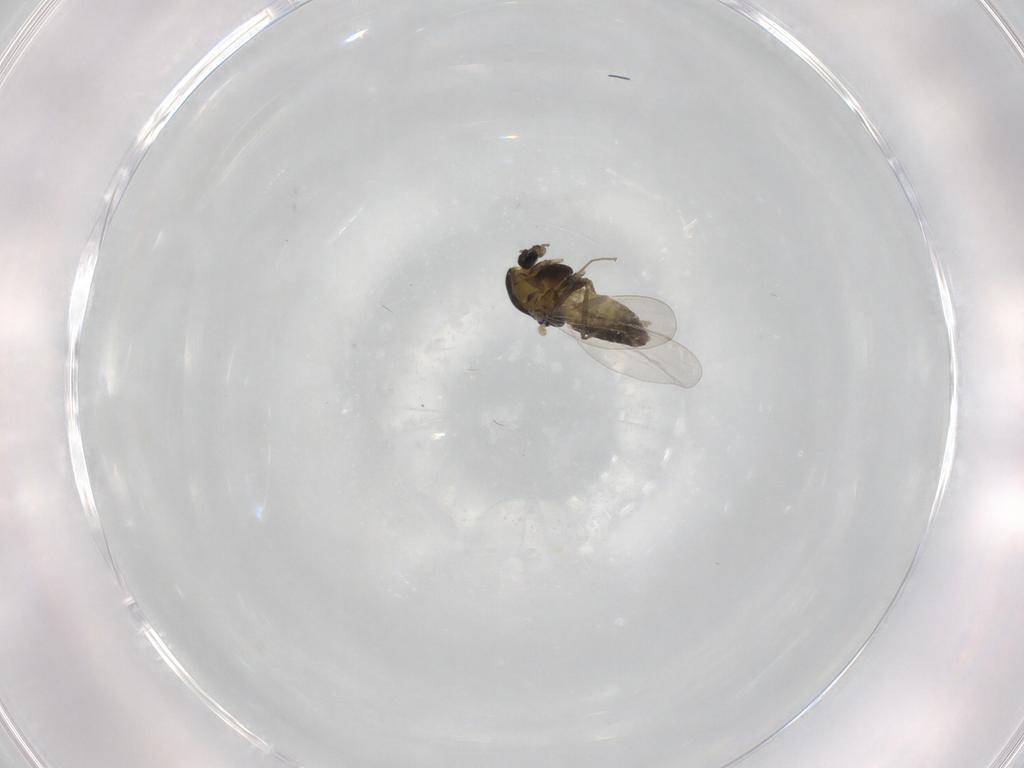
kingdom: Animalia
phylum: Arthropoda
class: Insecta
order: Diptera
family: Chironomidae
